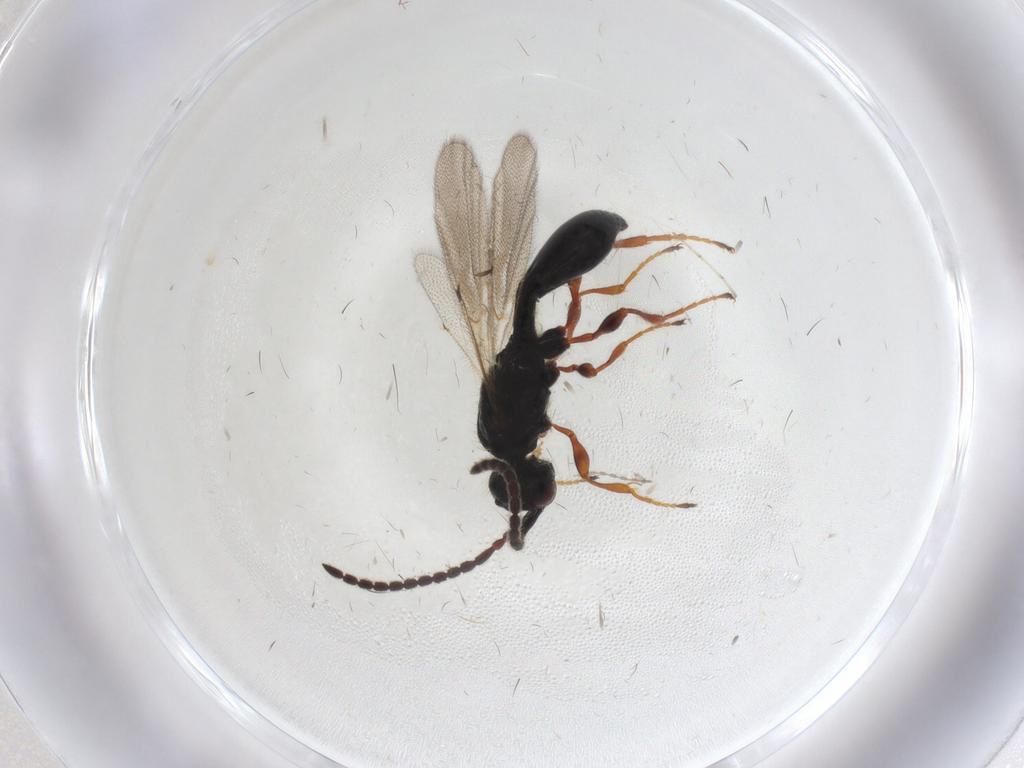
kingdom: Animalia
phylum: Arthropoda
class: Insecta
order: Hymenoptera
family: Diapriidae
